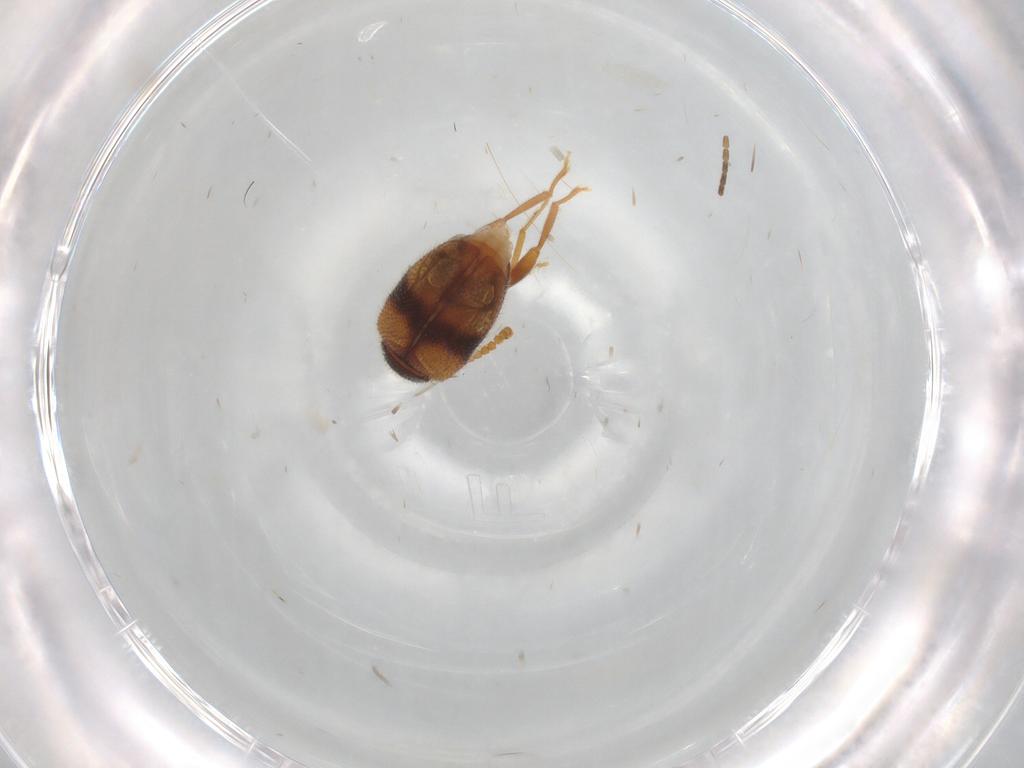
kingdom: Animalia
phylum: Arthropoda
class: Insecta
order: Coleoptera
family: Aderidae
